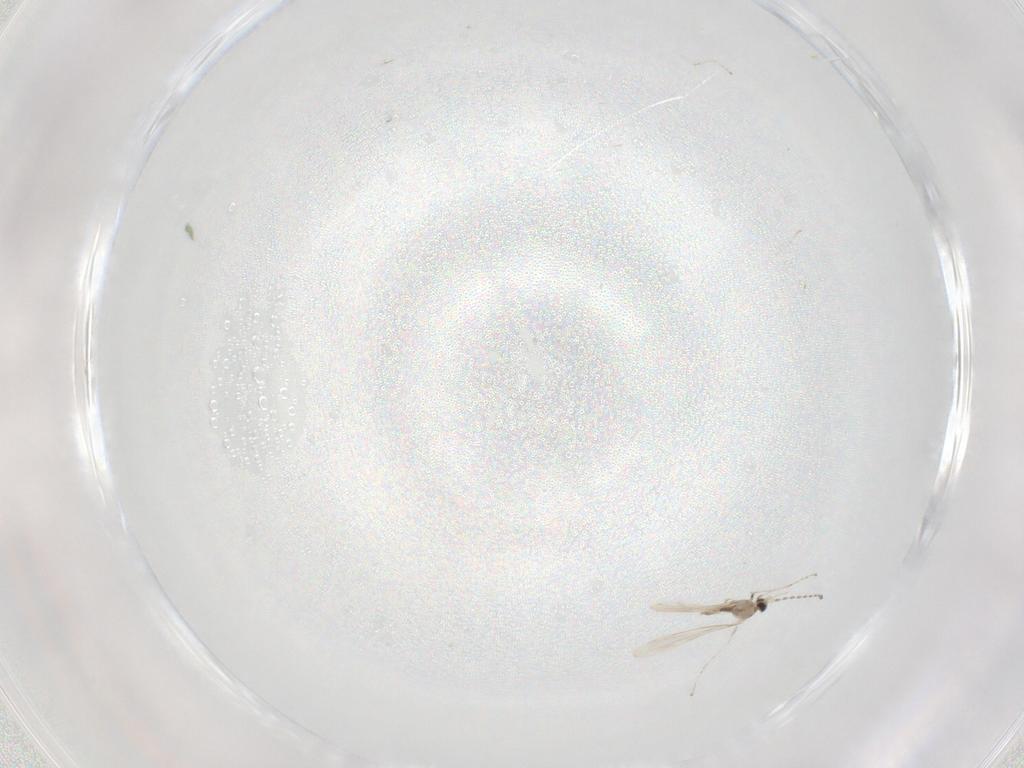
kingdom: Animalia
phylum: Arthropoda
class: Insecta
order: Diptera
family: Cecidomyiidae
